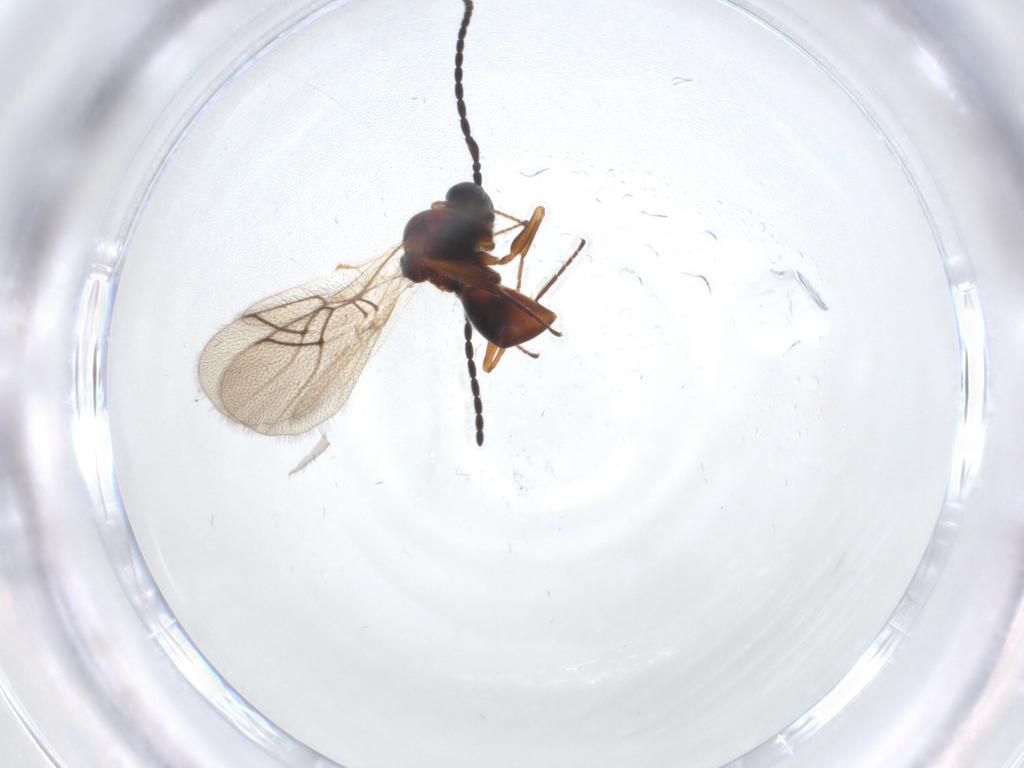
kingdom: Animalia
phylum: Arthropoda
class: Insecta
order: Hymenoptera
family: Figitidae
